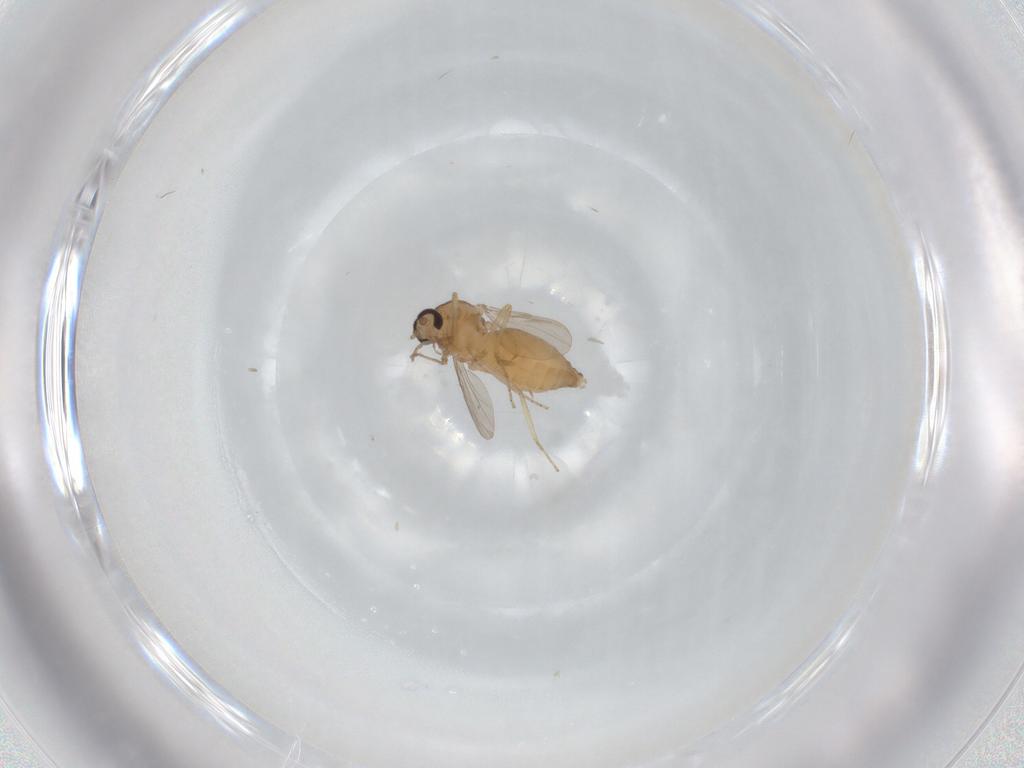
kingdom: Animalia
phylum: Arthropoda
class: Insecta
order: Diptera
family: Ceratopogonidae
